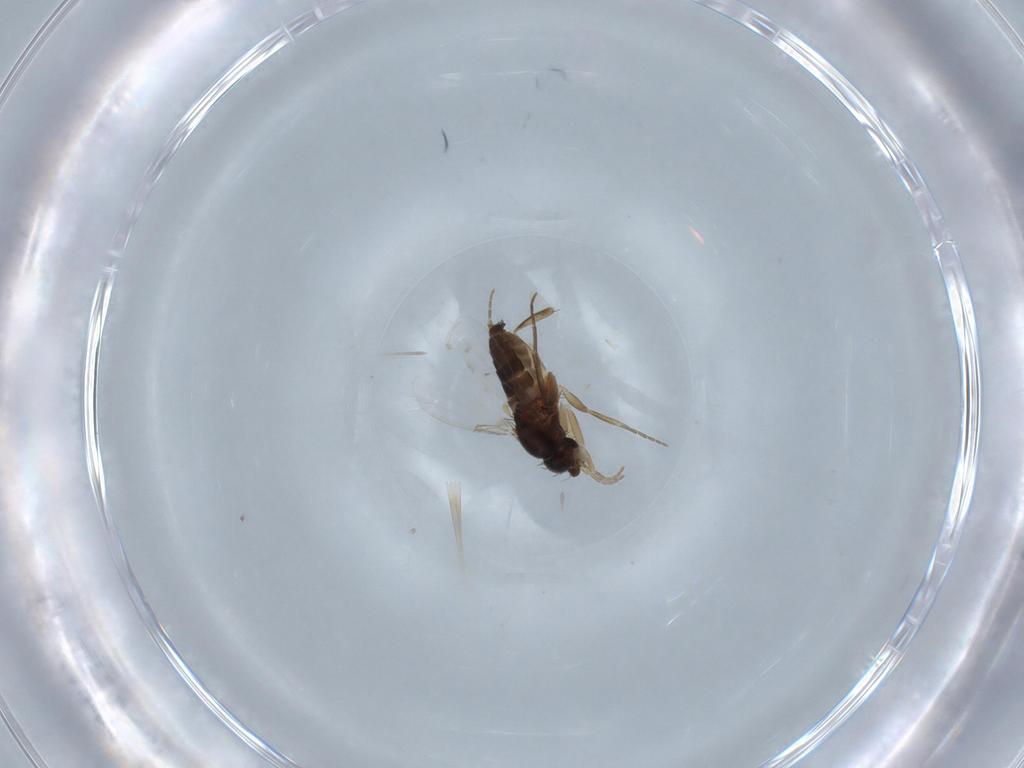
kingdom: Animalia
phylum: Arthropoda
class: Insecta
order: Diptera
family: Phoridae
